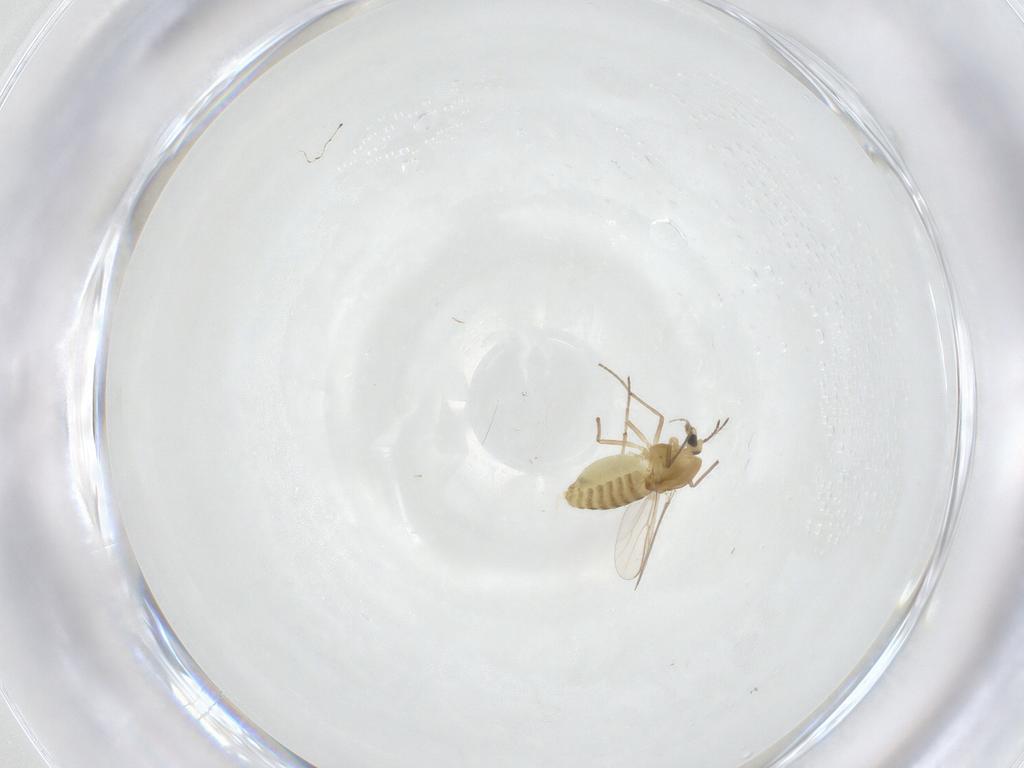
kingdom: Animalia
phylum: Arthropoda
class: Insecta
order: Diptera
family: Chironomidae
